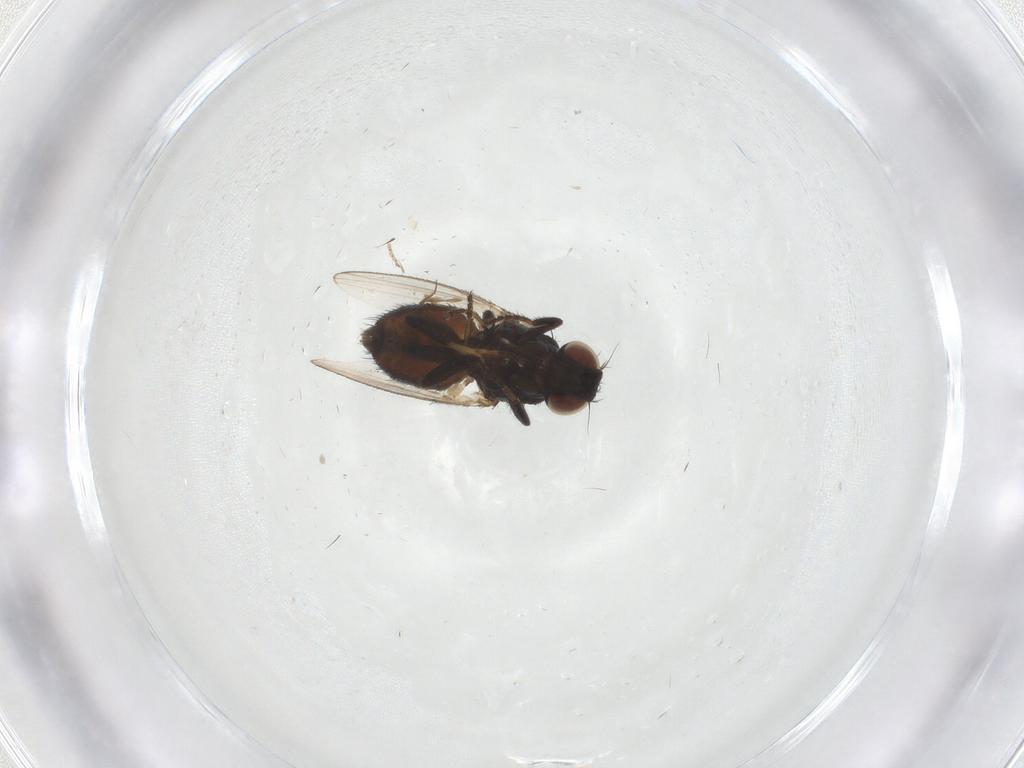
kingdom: Animalia
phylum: Arthropoda
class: Insecta
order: Diptera
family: Milichiidae
